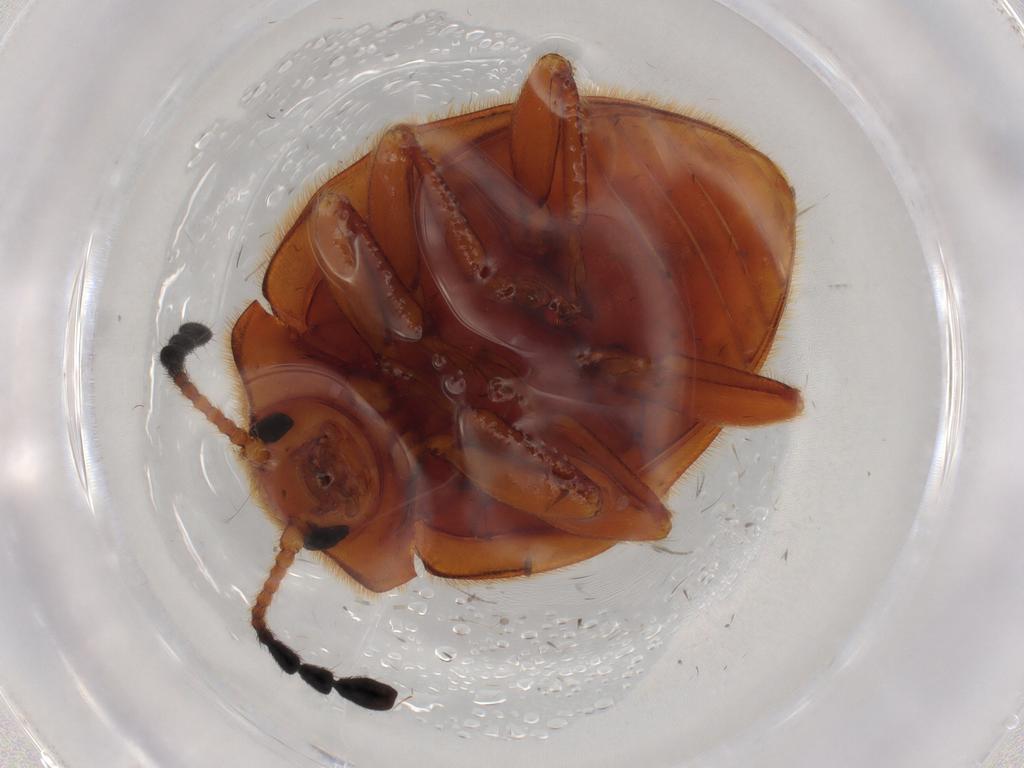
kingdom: Animalia
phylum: Arthropoda
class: Insecta
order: Coleoptera
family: Endomychidae
